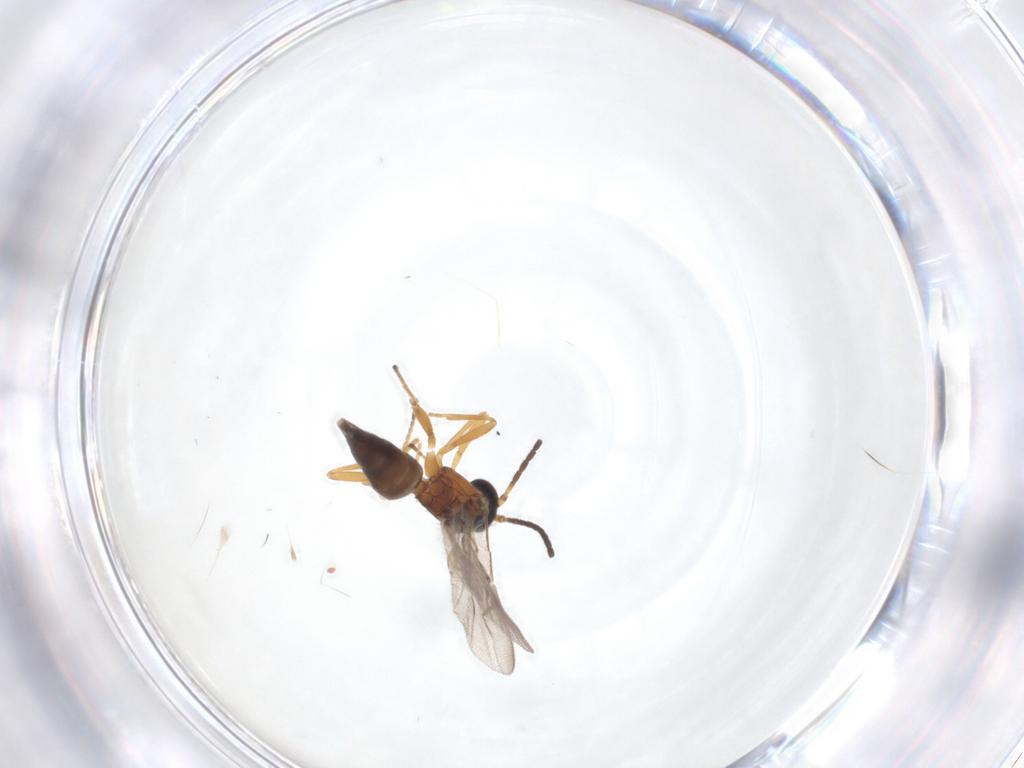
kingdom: Animalia
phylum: Arthropoda
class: Insecta
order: Hymenoptera
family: Braconidae
